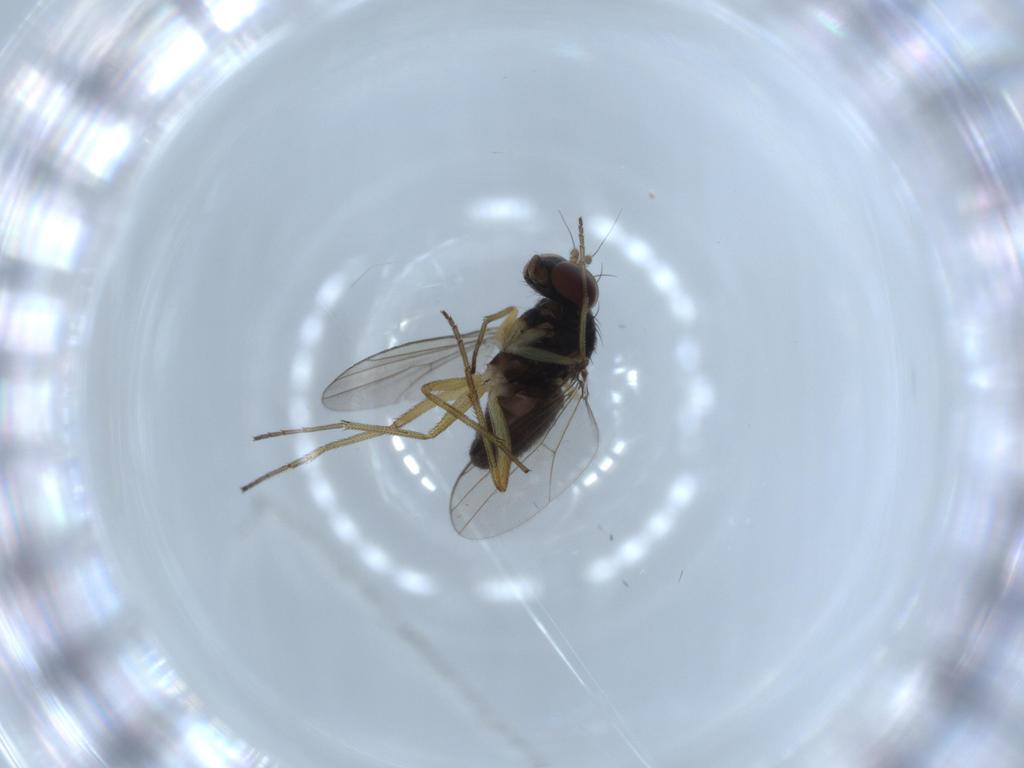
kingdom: Animalia
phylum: Arthropoda
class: Insecta
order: Diptera
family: Dolichopodidae
